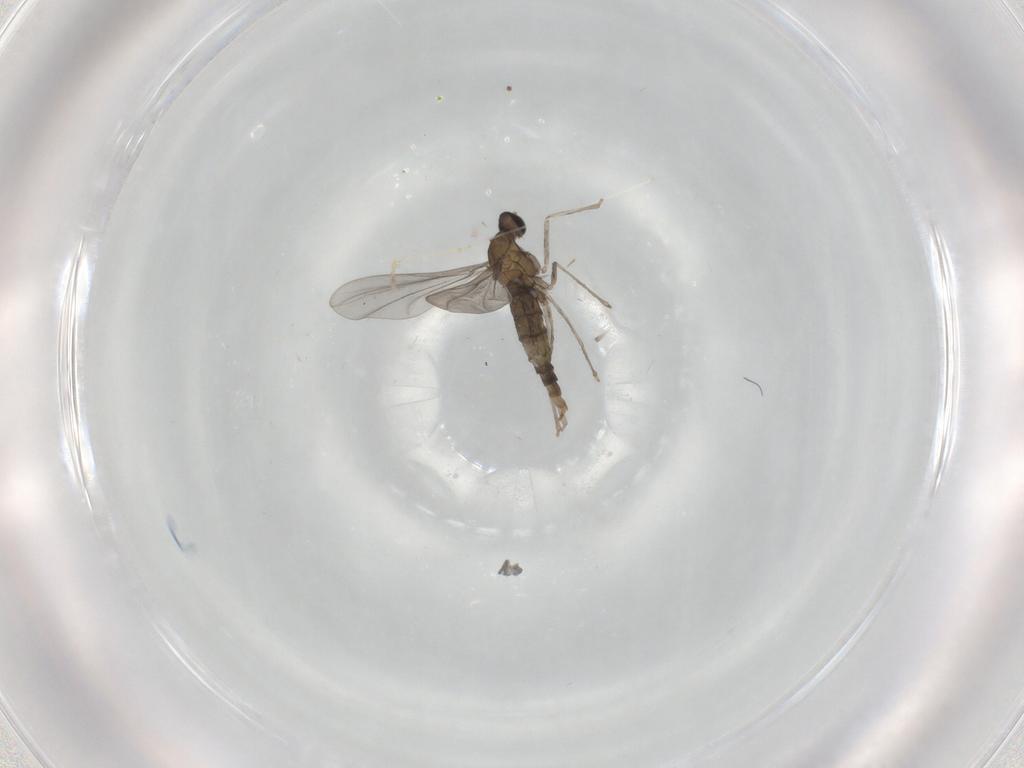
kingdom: Animalia
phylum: Arthropoda
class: Insecta
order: Diptera
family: Cecidomyiidae
